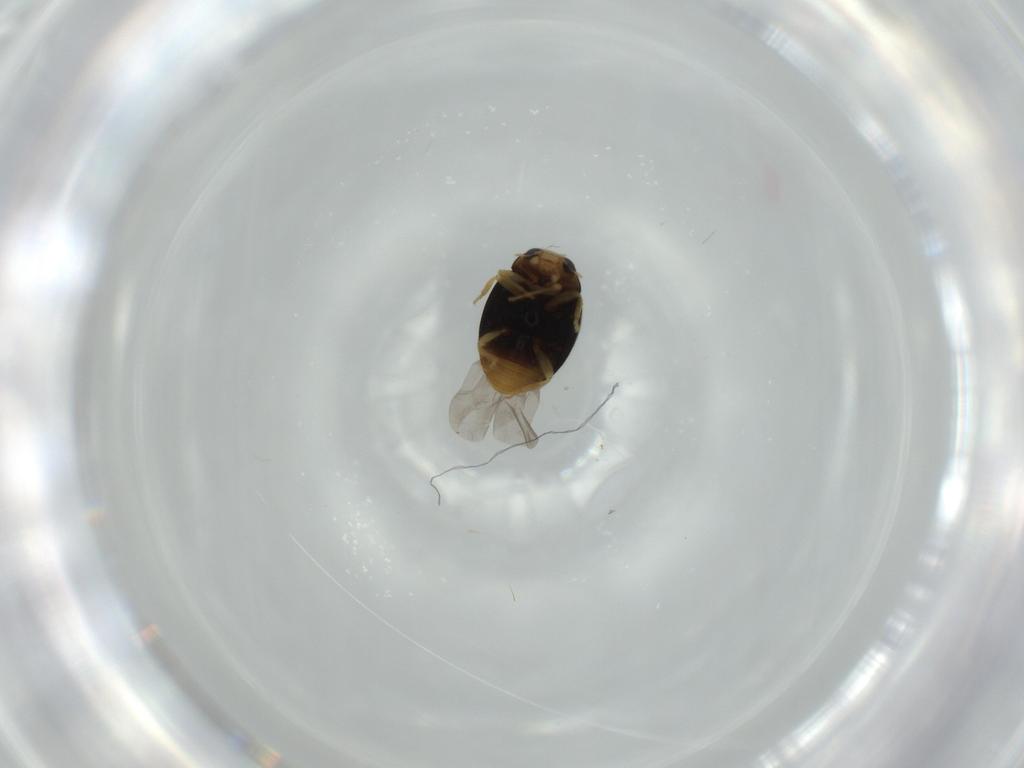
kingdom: Animalia
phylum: Arthropoda
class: Insecta
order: Coleoptera
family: Coccinellidae
